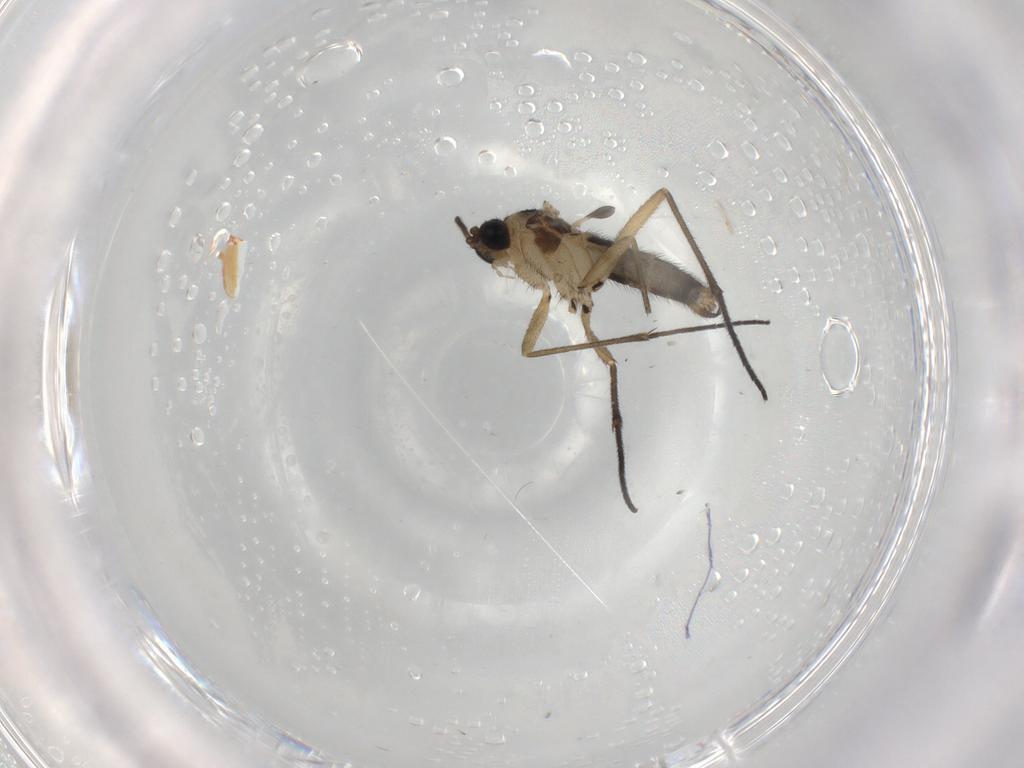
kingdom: Animalia
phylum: Arthropoda
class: Insecta
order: Diptera
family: Sciaridae
